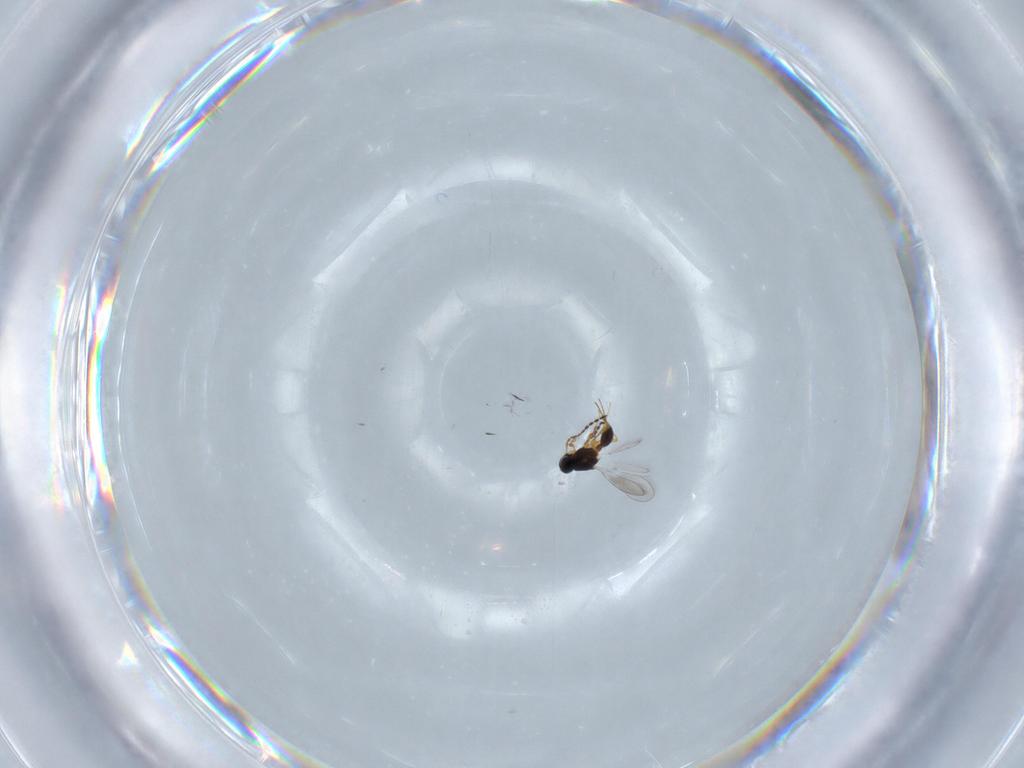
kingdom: Animalia
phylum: Arthropoda
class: Insecta
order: Hymenoptera
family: Platygastridae
